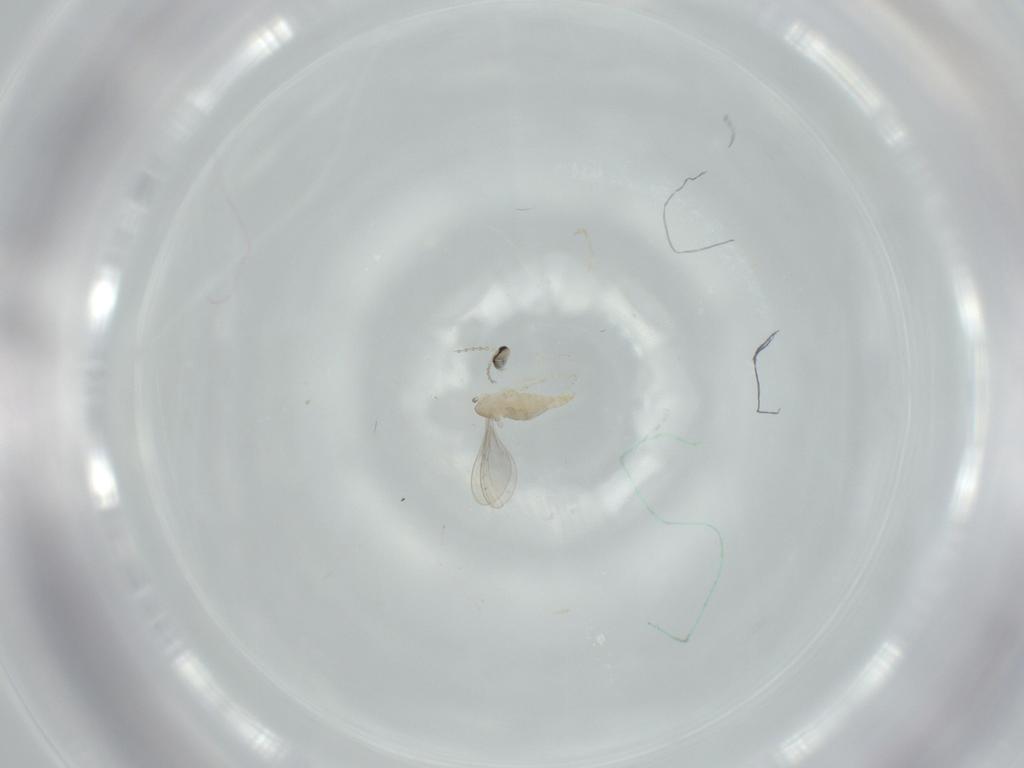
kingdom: Animalia
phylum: Arthropoda
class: Insecta
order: Diptera
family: Cecidomyiidae
